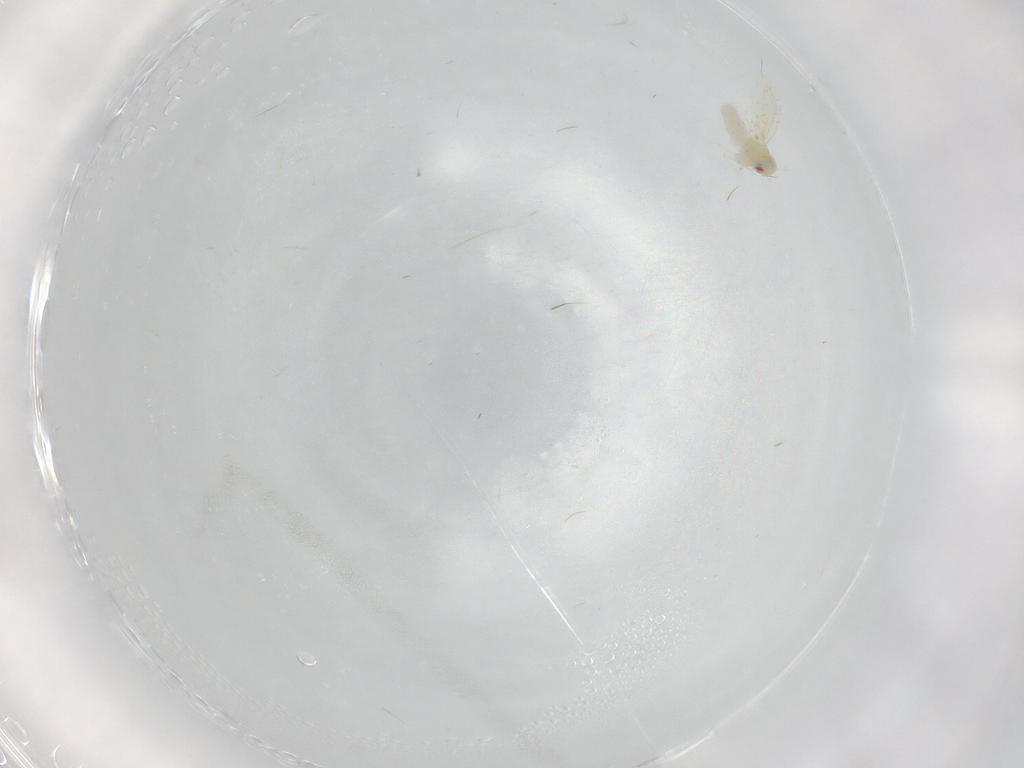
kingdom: Animalia
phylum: Arthropoda
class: Insecta
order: Hemiptera
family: Aleyrodidae
